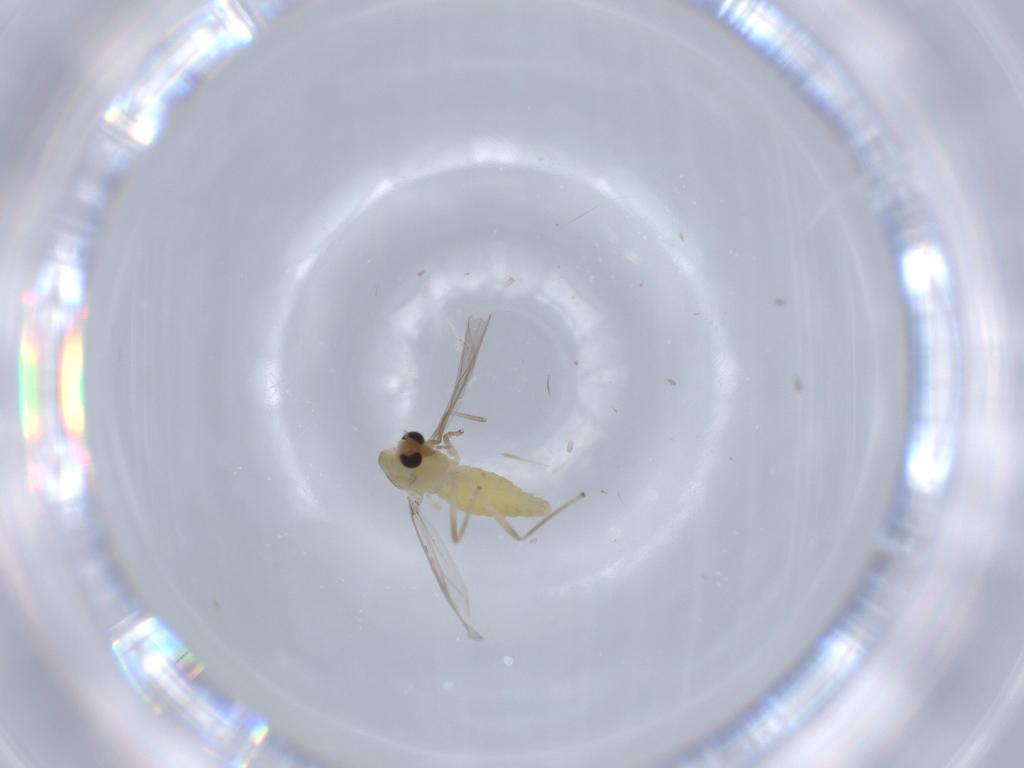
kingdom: Animalia
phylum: Arthropoda
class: Insecta
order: Diptera
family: Chironomidae
